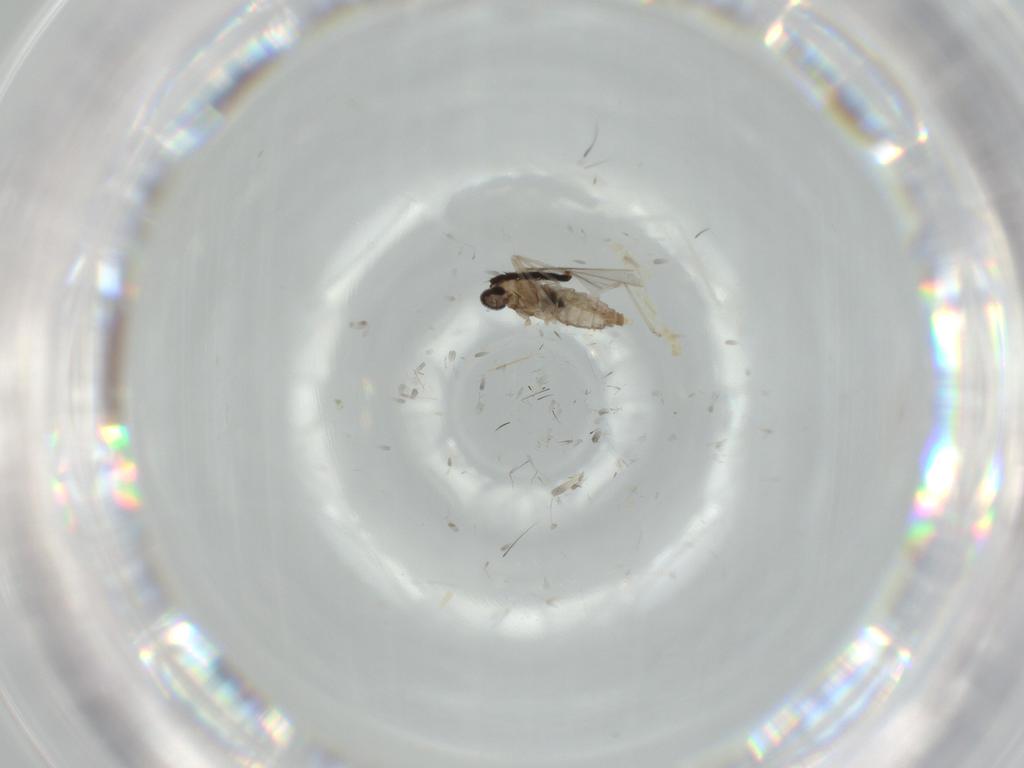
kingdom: Animalia
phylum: Arthropoda
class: Insecta
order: Diptera
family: Cecidomyiidae
